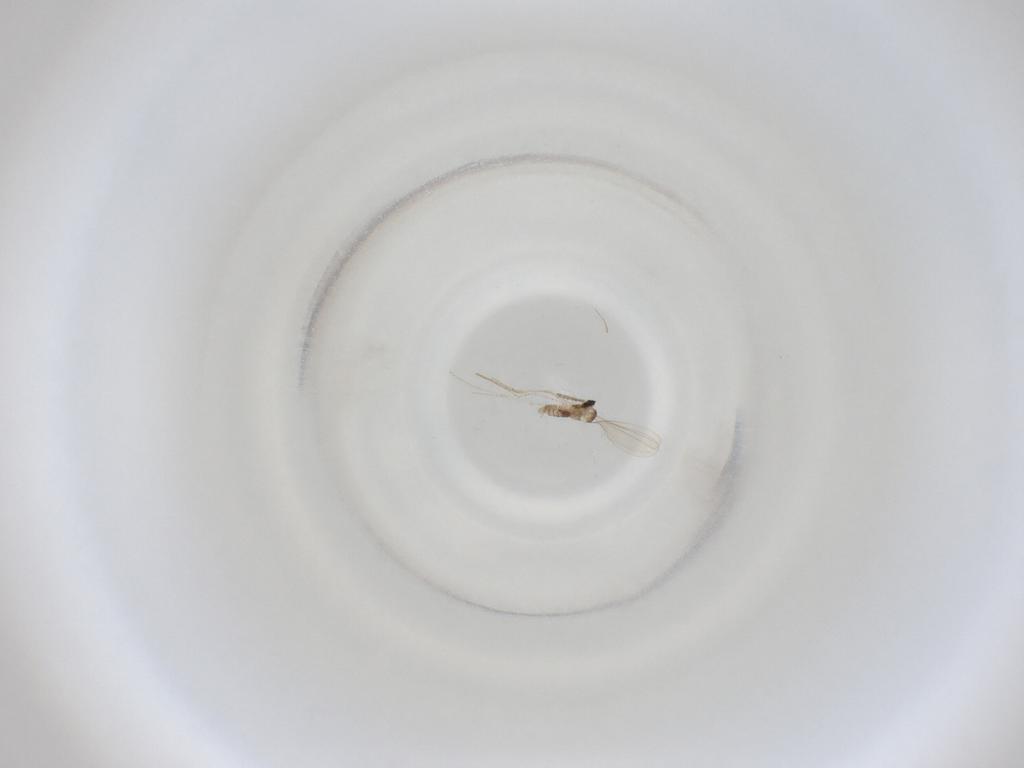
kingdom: Animalia
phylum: Arthropoda
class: Insecta
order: Diptera
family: Cecidomyiidae
